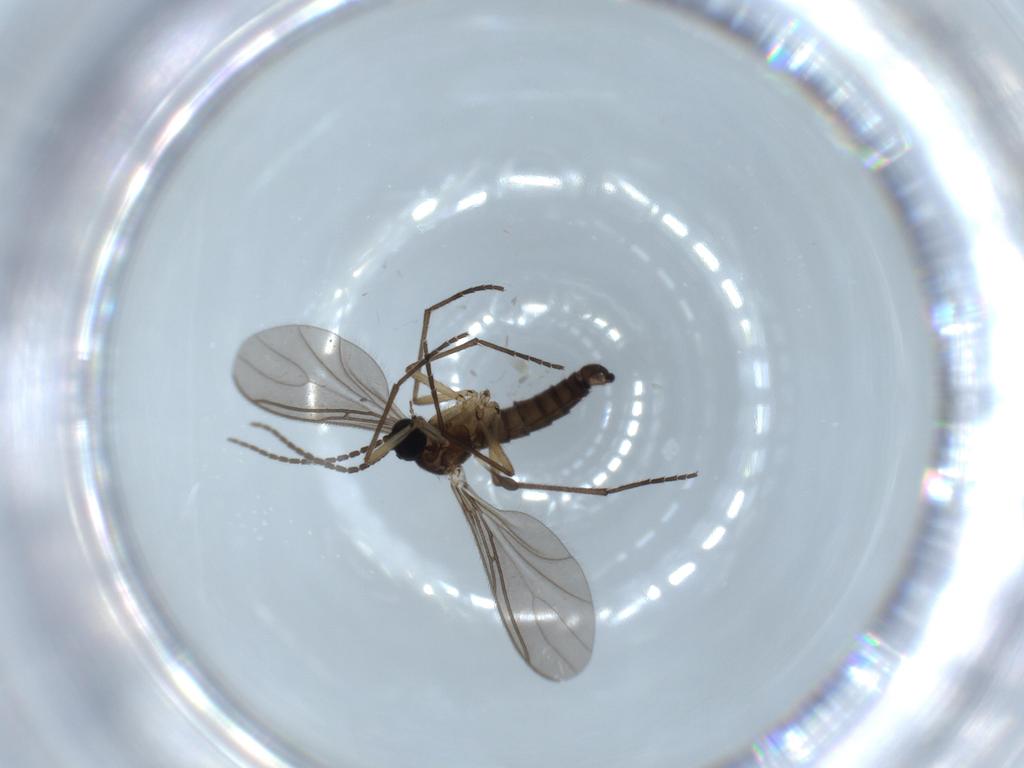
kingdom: Animalia
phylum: Arthropoda
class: Insecta
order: Diptera
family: Sciaridae
